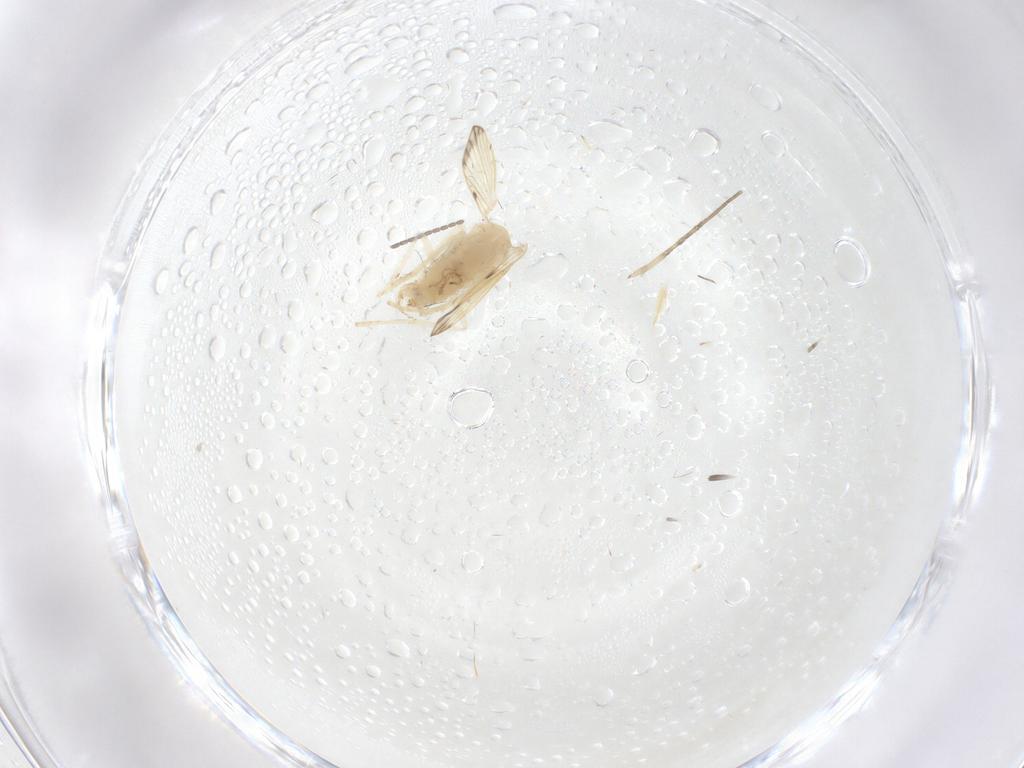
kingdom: Animalia
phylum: Arthropoda
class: Insecta
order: Diptera
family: Cecidomyiidae
